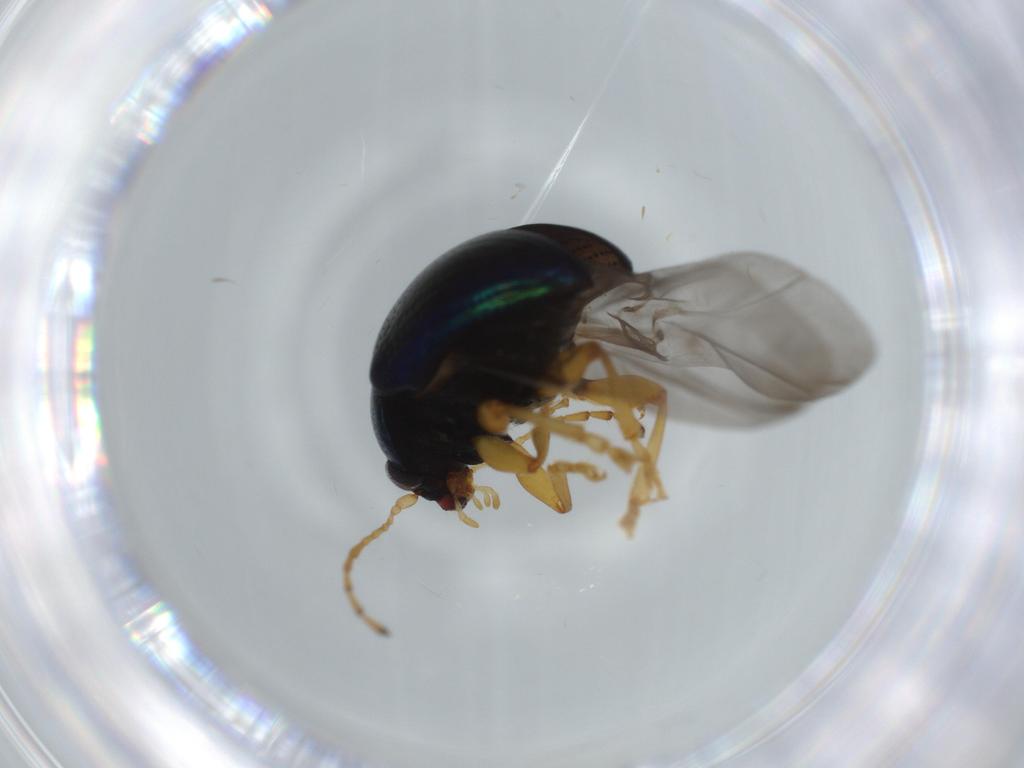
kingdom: Animalia
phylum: Arthropoda
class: Insecta
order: Coleoptera
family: Chrysomelidae
